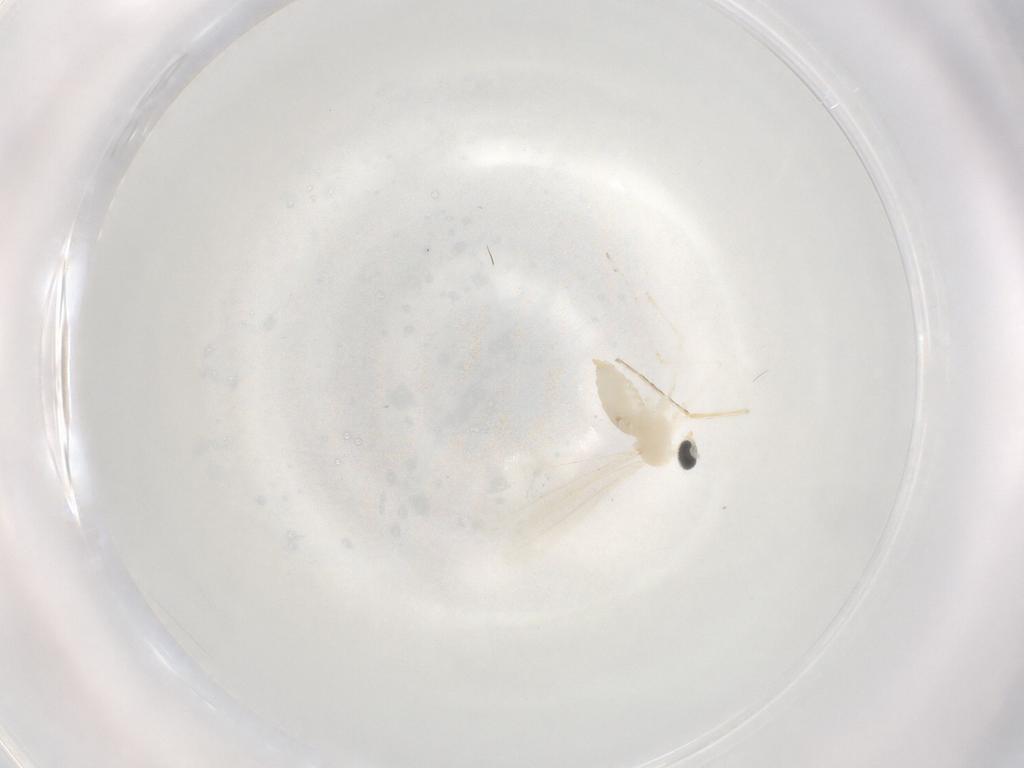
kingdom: Animalia
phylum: Arthropoda
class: Insecta
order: Diptera
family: Cecidomyiidae
